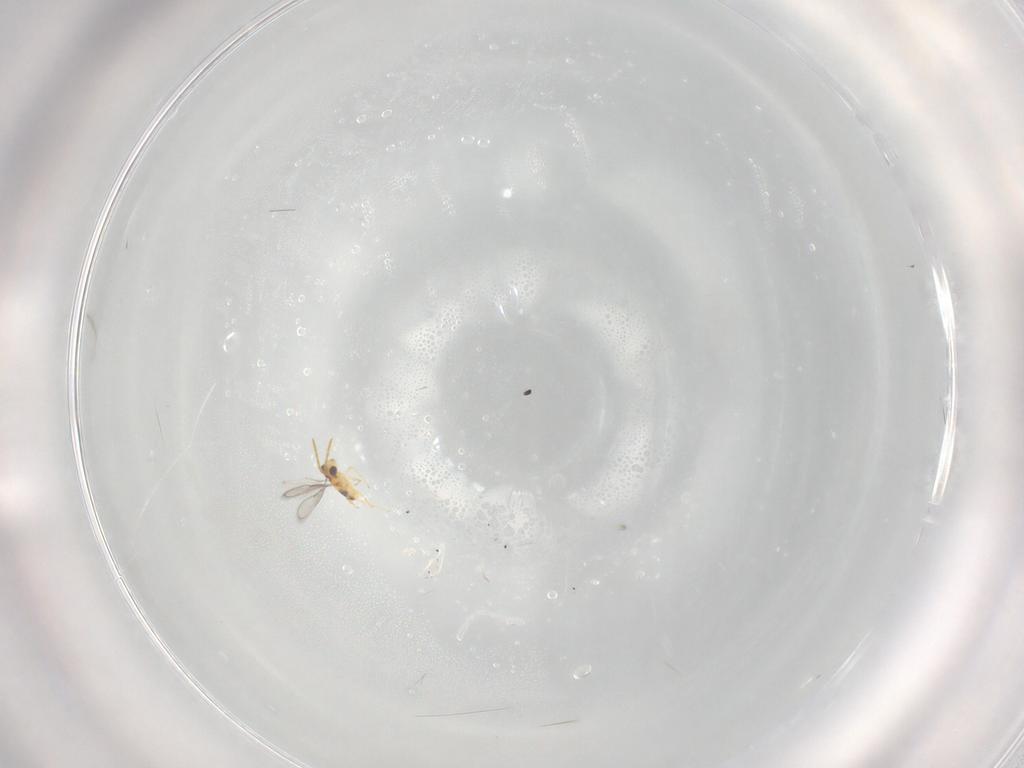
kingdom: Animalia
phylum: Arthropoda
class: Insecta
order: Hymenoptera
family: Aphelinidae
